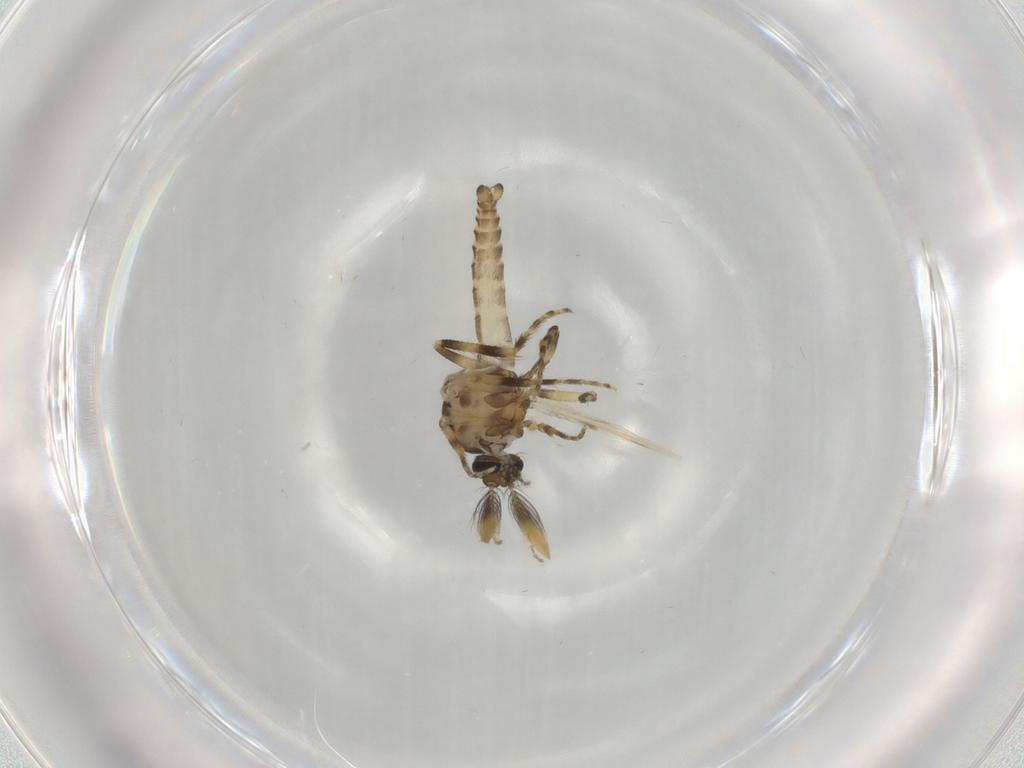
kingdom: Animalia
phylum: Arthropoda
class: Insecta
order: Diptera
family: Ceratopogonidae
